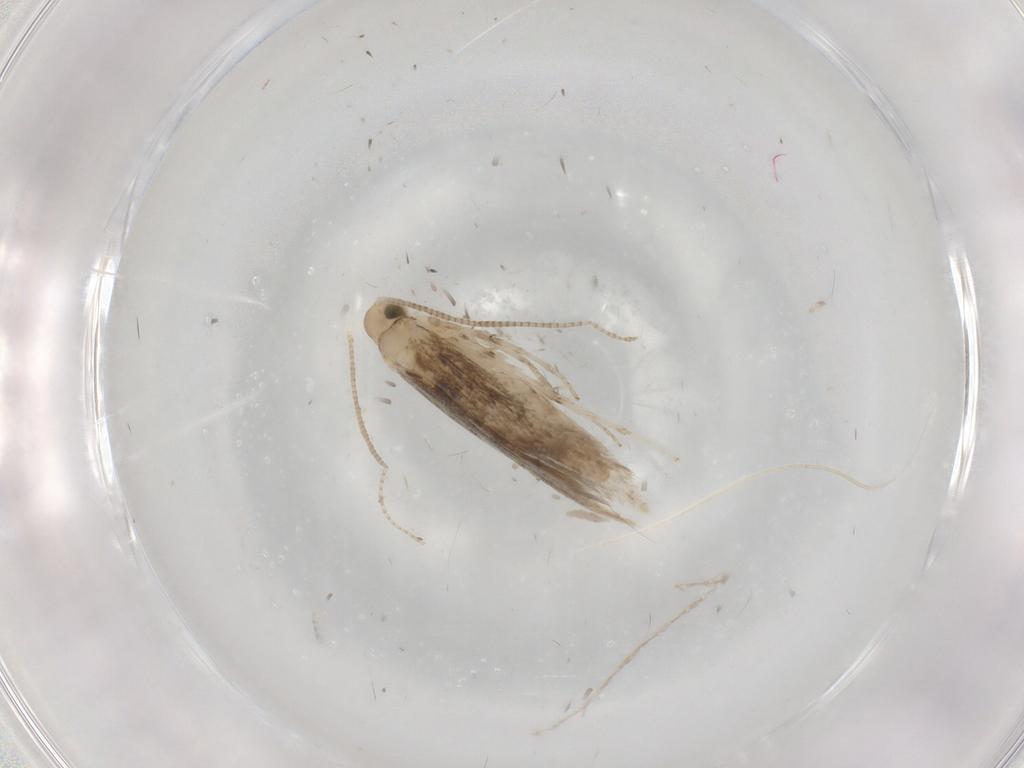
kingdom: Animalia
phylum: Arthropoda
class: Insecta
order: Lepidoptera
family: Gracillariidae
